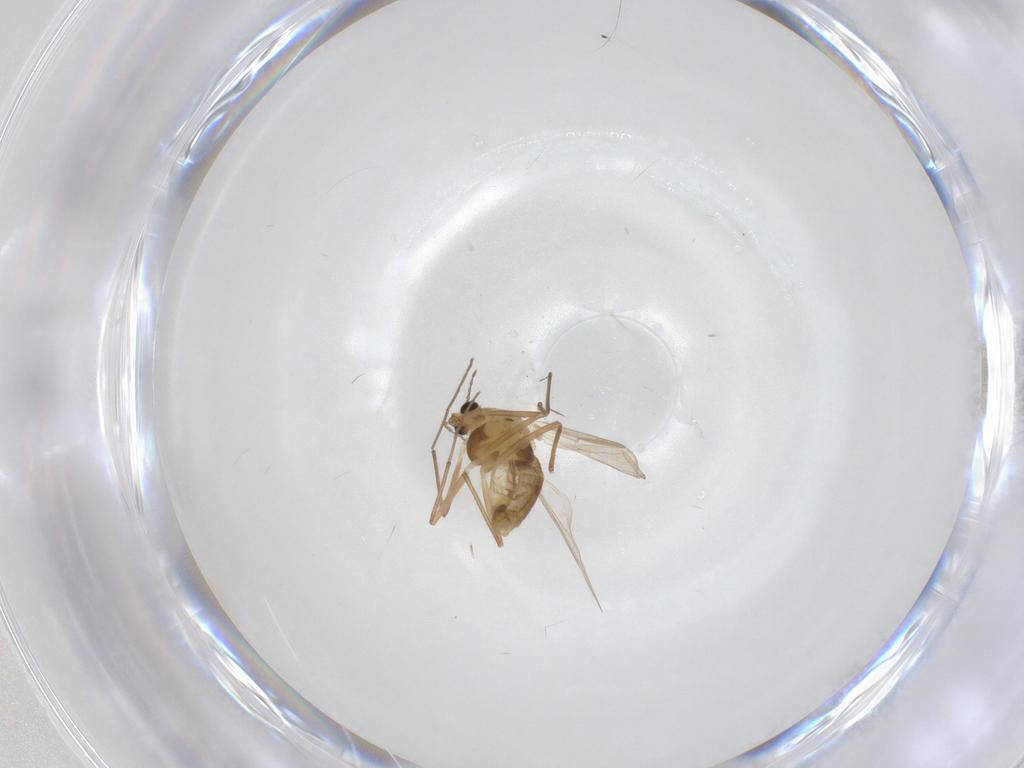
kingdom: Animalia
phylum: Arthropoda
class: Insecta
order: Diptera
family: Chironomidae
